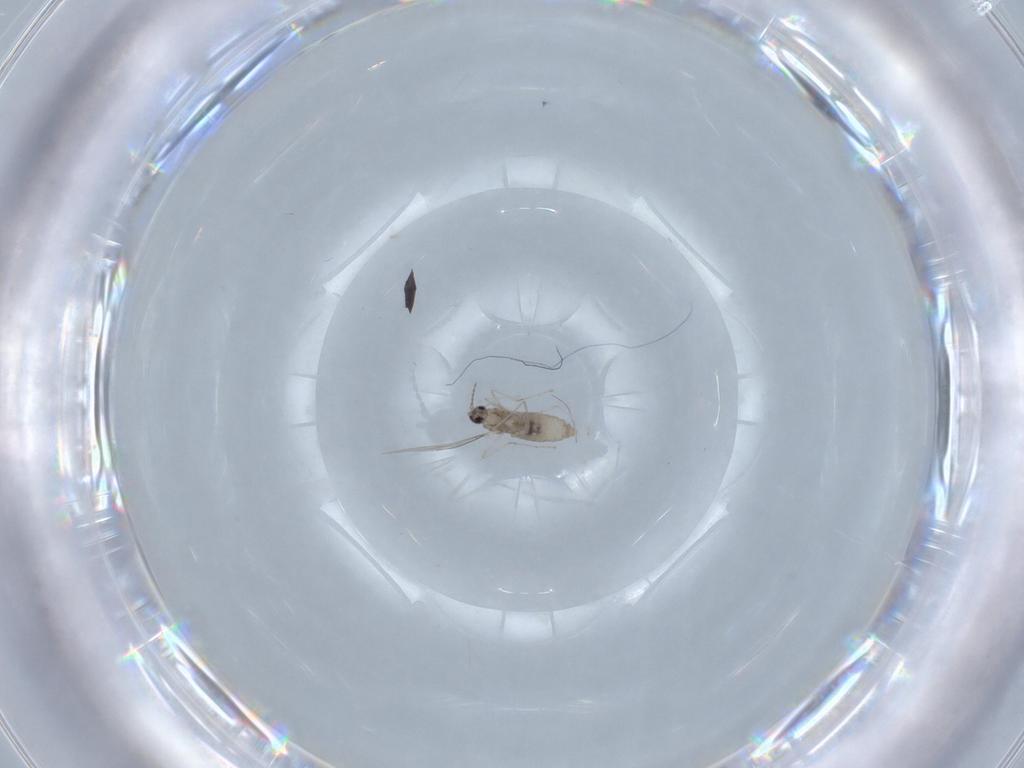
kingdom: Animalia
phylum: Arthropoda
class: Insecta
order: Diptera
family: Cecidomyiidae
